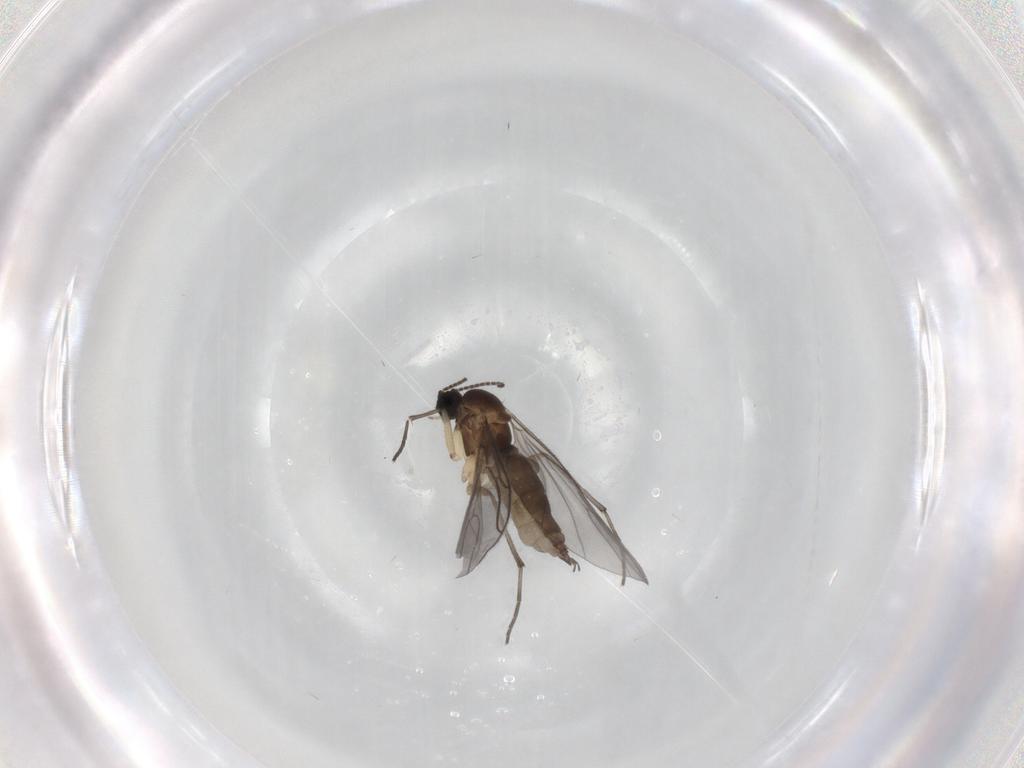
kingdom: Animalia
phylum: Arthropoda
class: Insecta
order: Diptera
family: Sciaridae
